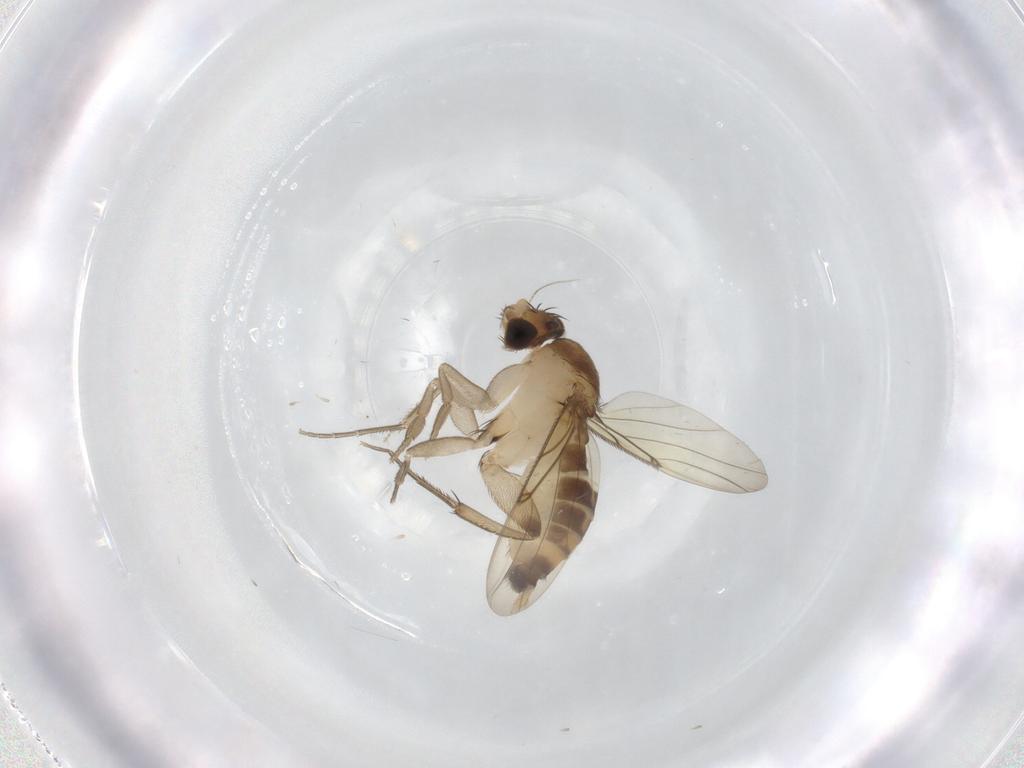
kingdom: Animalia
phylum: Arthropoda
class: Insecta
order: Diptera
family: Phoridae
